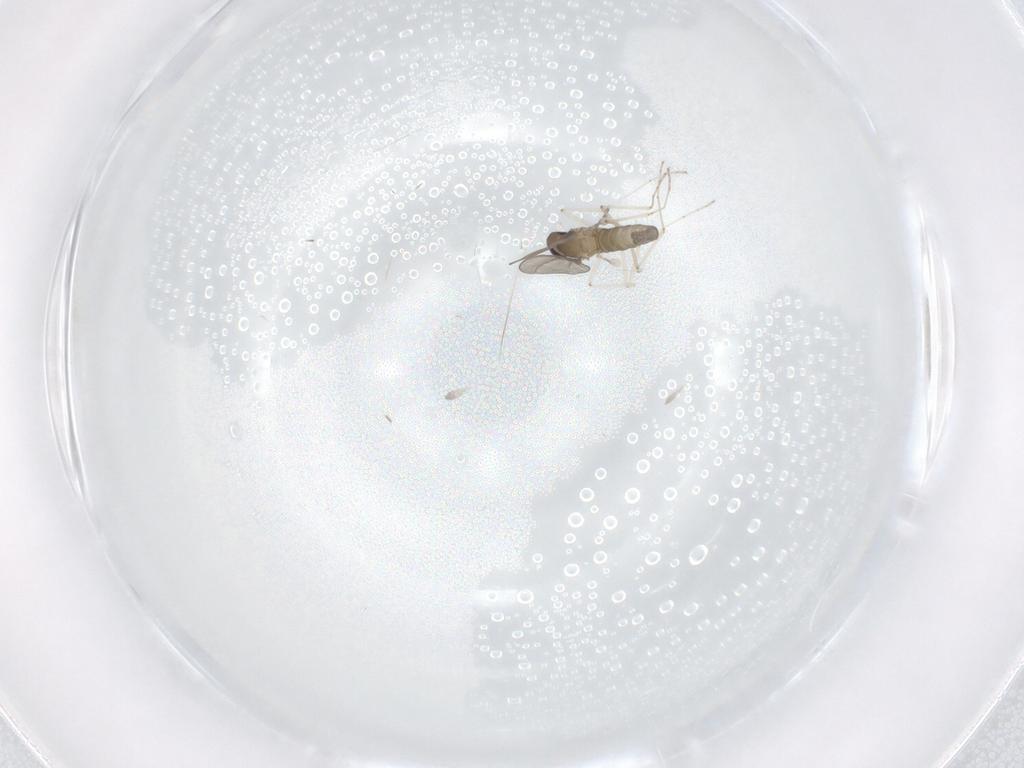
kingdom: Animalia
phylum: Arthropoda
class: Insecta
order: Diptera
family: Cecidomyiidae
